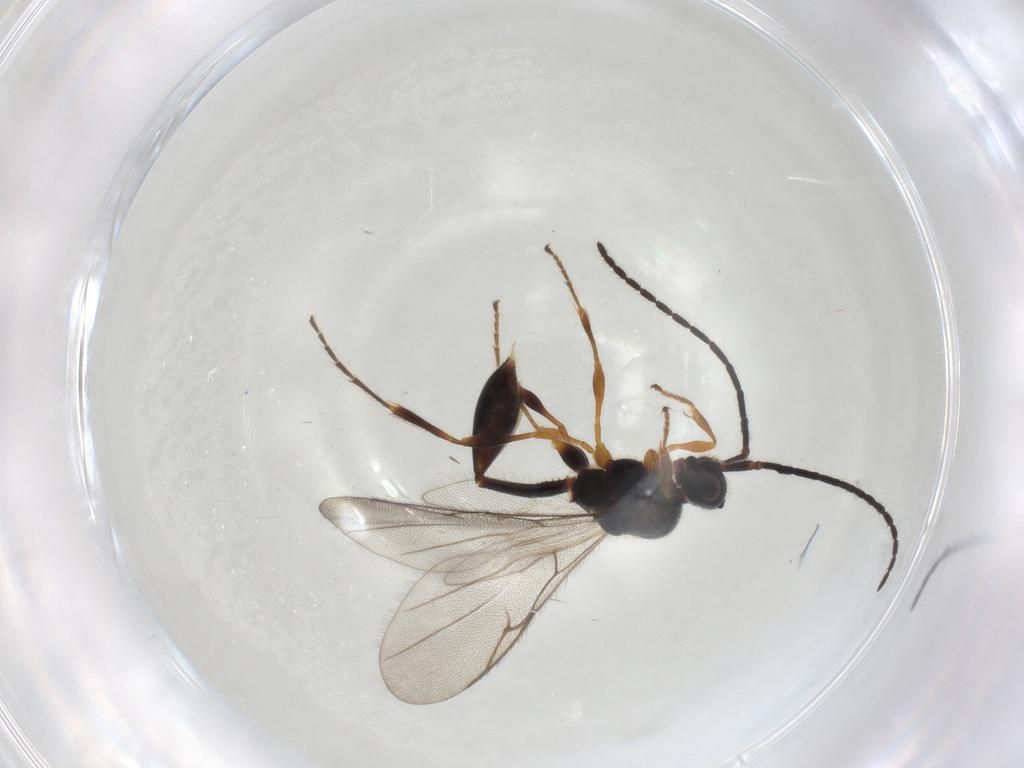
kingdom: Animalia
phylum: Arthropoda
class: Insecta
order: Hymenoptera
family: Diapriidae
